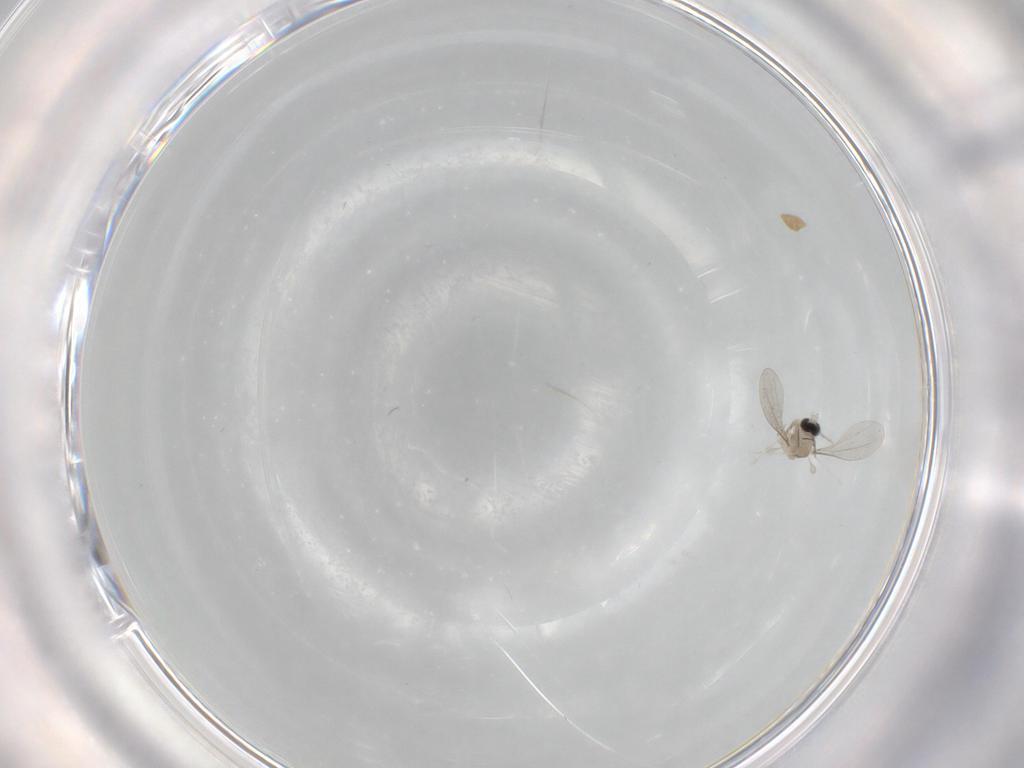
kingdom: Animalia
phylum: Arthropoda
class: Insecta
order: Diptera
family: Cecidomyiidae
